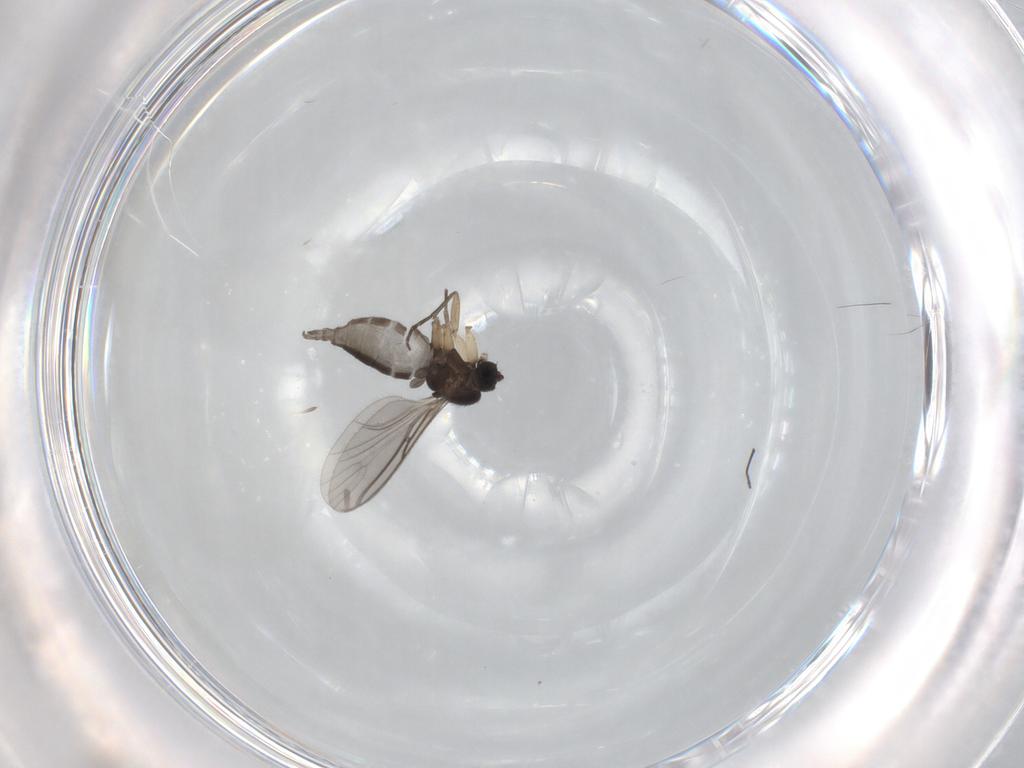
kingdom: Animalia
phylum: Arthropoda
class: Insecta
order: Diptera
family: Sciaridae
